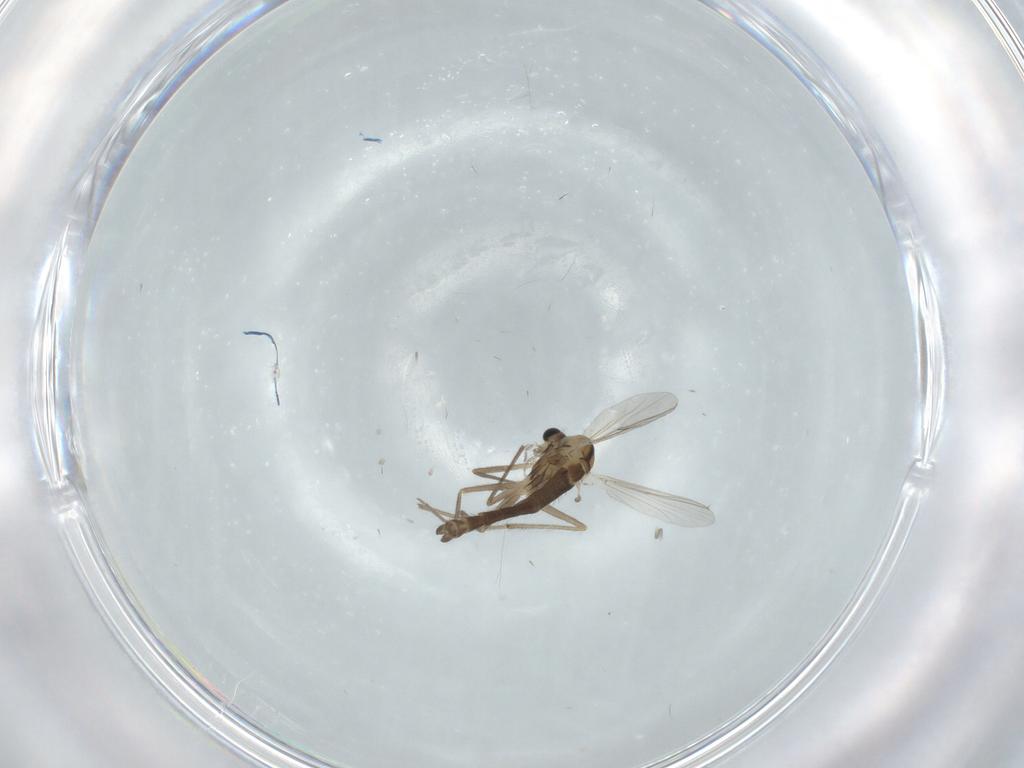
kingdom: Animalia
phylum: Arthropoda
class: Insecta
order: Diptera
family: Chironomidae
